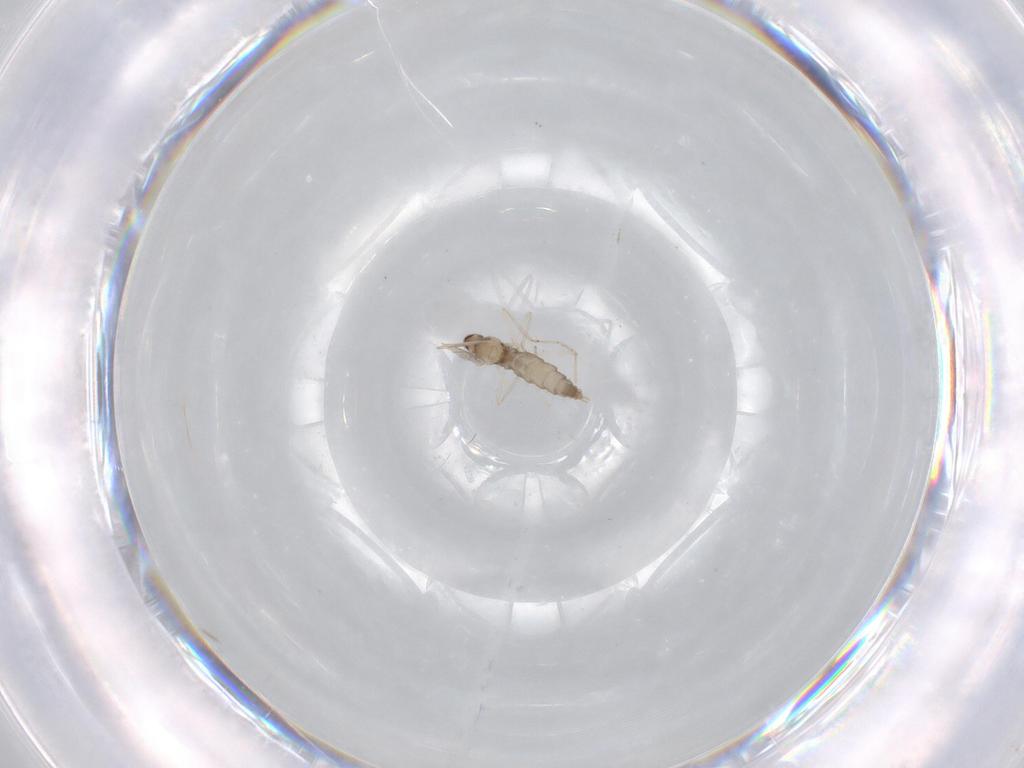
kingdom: Animalia
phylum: Arthropoda
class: Insecta
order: Diptera
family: Cecidomyiidae
